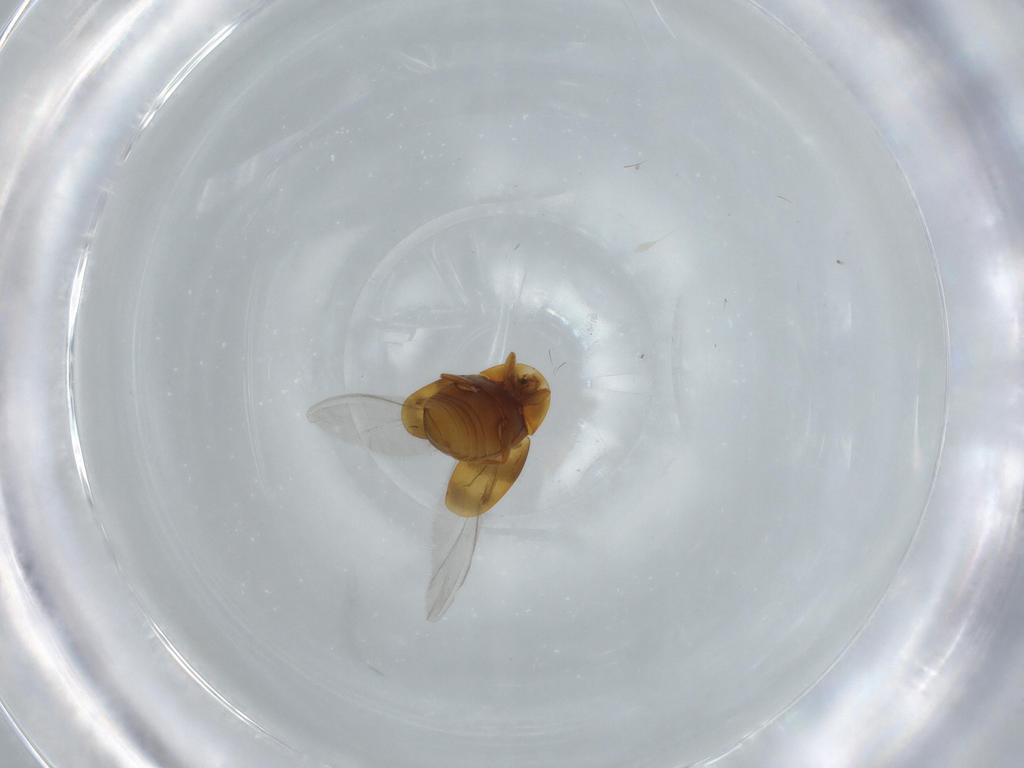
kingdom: Animalia
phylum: Arthropoda
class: Insecta
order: Coleoptera
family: Corylophidae
